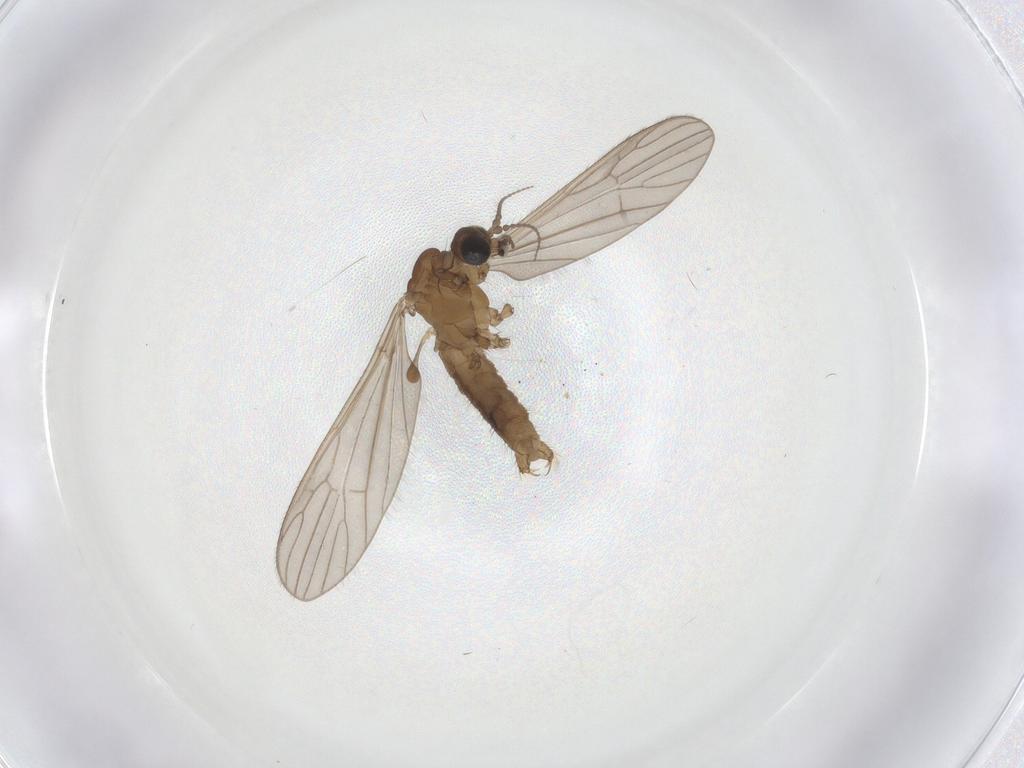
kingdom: Animalia
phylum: Arthropoda
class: Insecta
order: Diptera
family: Limoniidae
